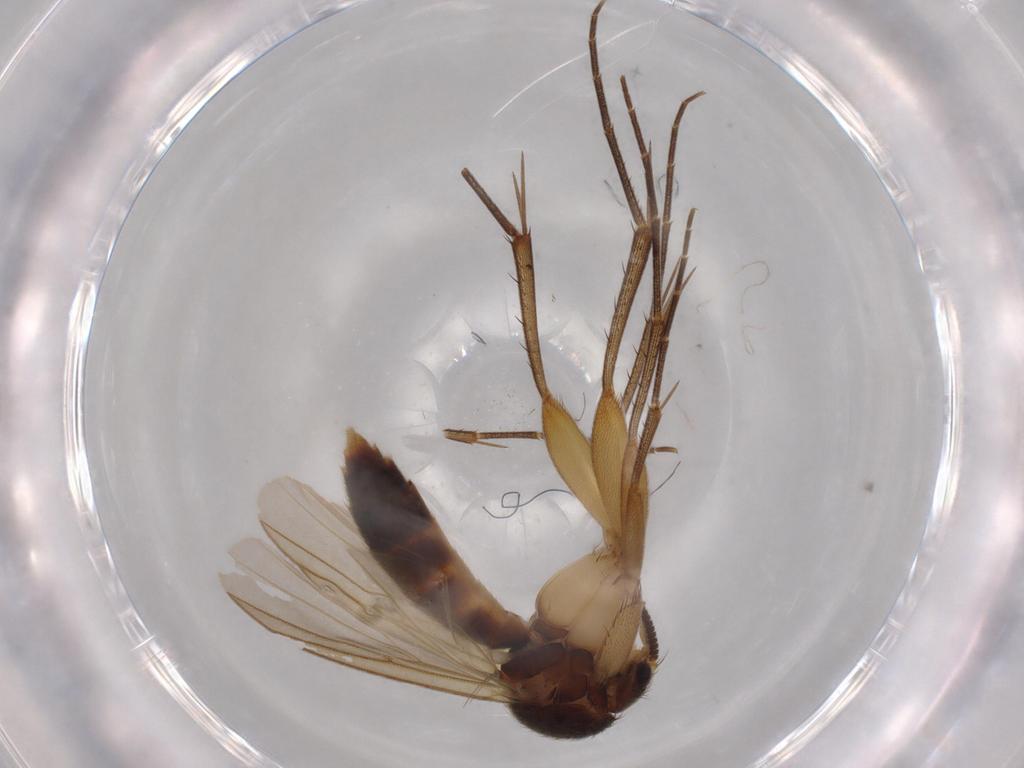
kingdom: Animalia
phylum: Arthropoda
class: Insecta
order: Diptera
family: Mycetophilidae
